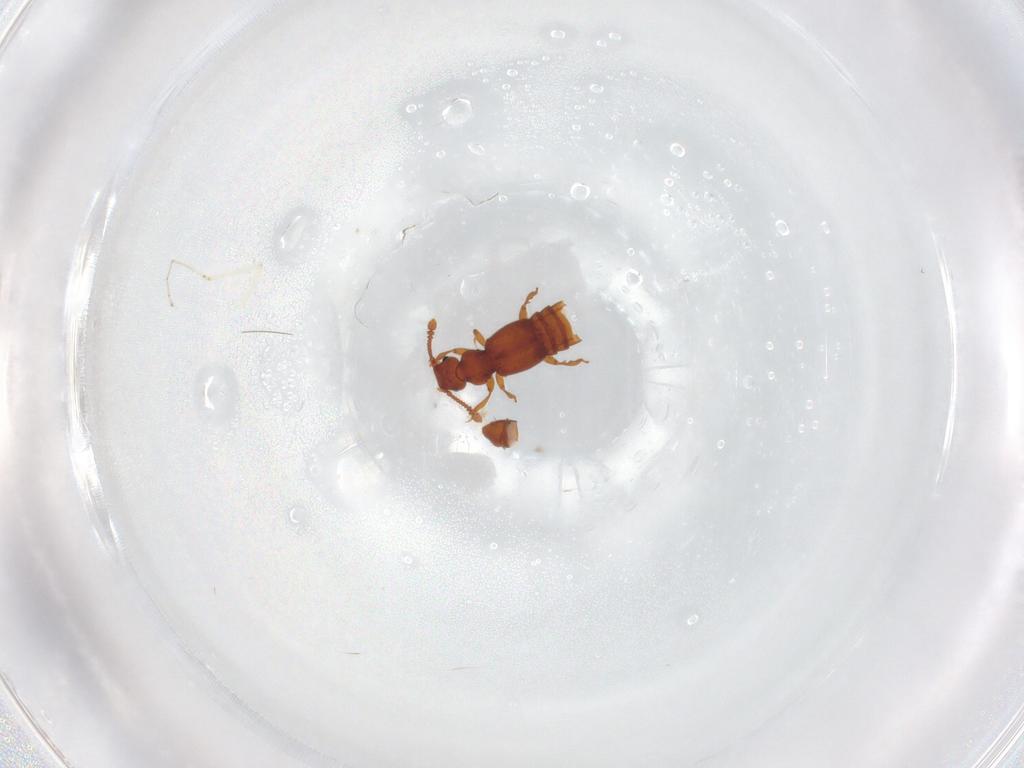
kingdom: Animalia
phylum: Arthropoda
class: Insecta
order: Coleoptera
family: Staphylinidae
